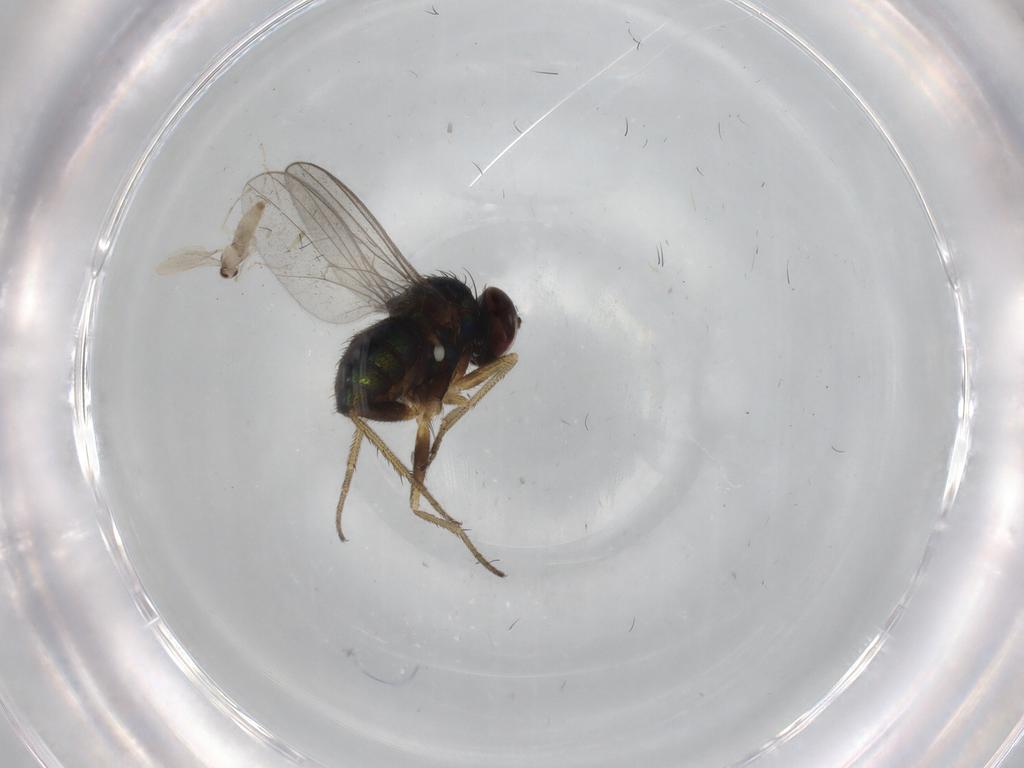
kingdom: Animalia
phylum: Arthropoda
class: Insecta
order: Diptera
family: Cecidomyiidae
